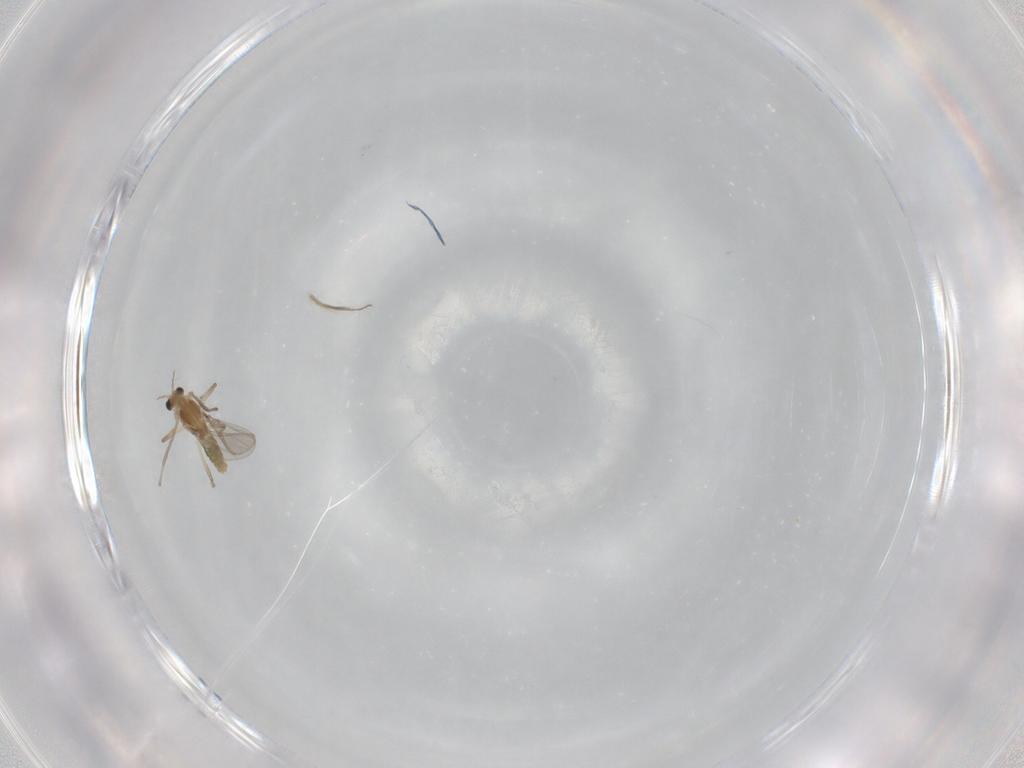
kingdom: Animalia
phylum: Arthropoda
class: Insecta
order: Diptera
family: Chironomidae
